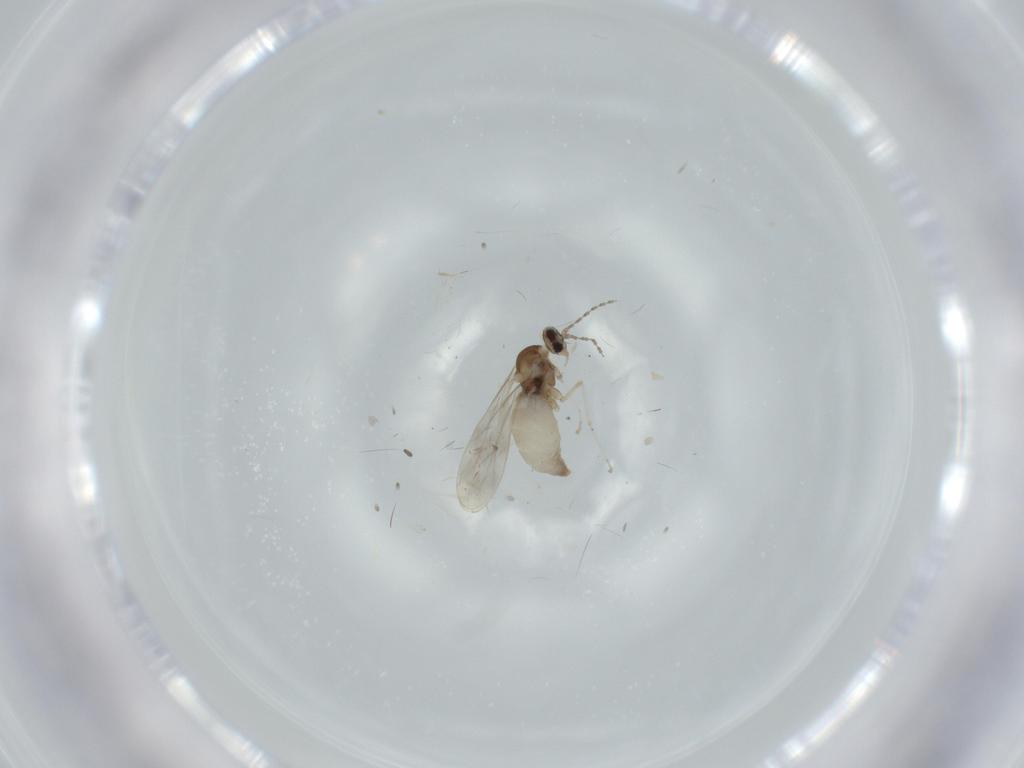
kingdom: Animalia
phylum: Arthropoda
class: Insecta
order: Diptera
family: Cecidomyiidae
